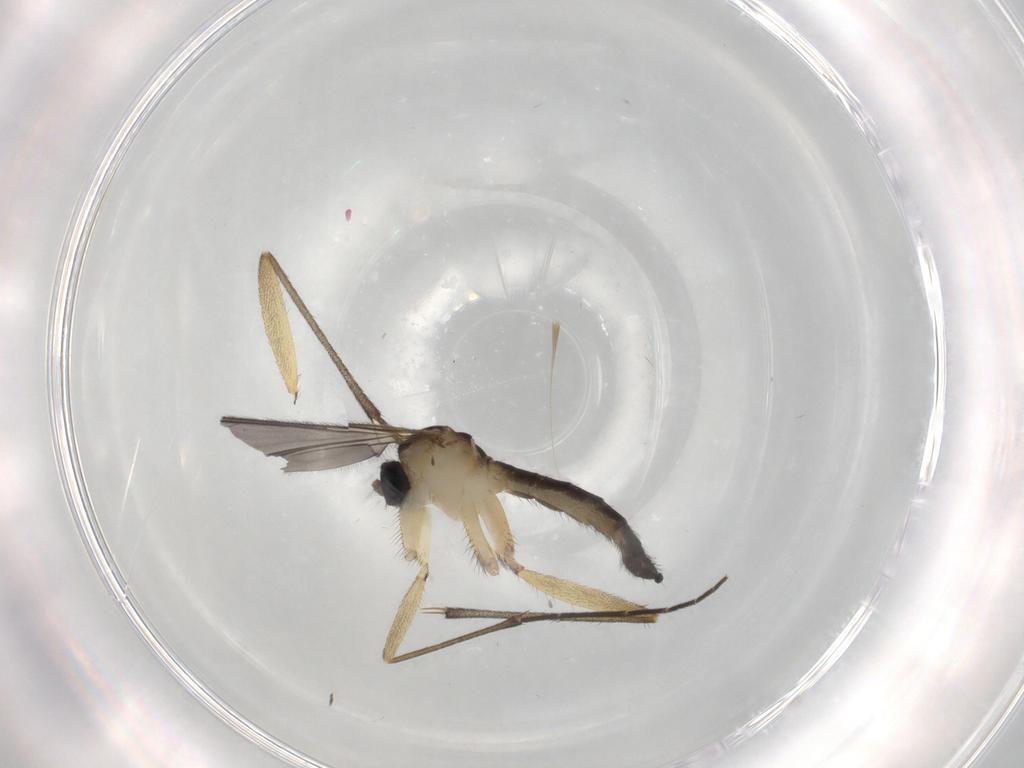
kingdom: Animalia
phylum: Arthropoda
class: Insecta
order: Diptera
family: Sciaridae
